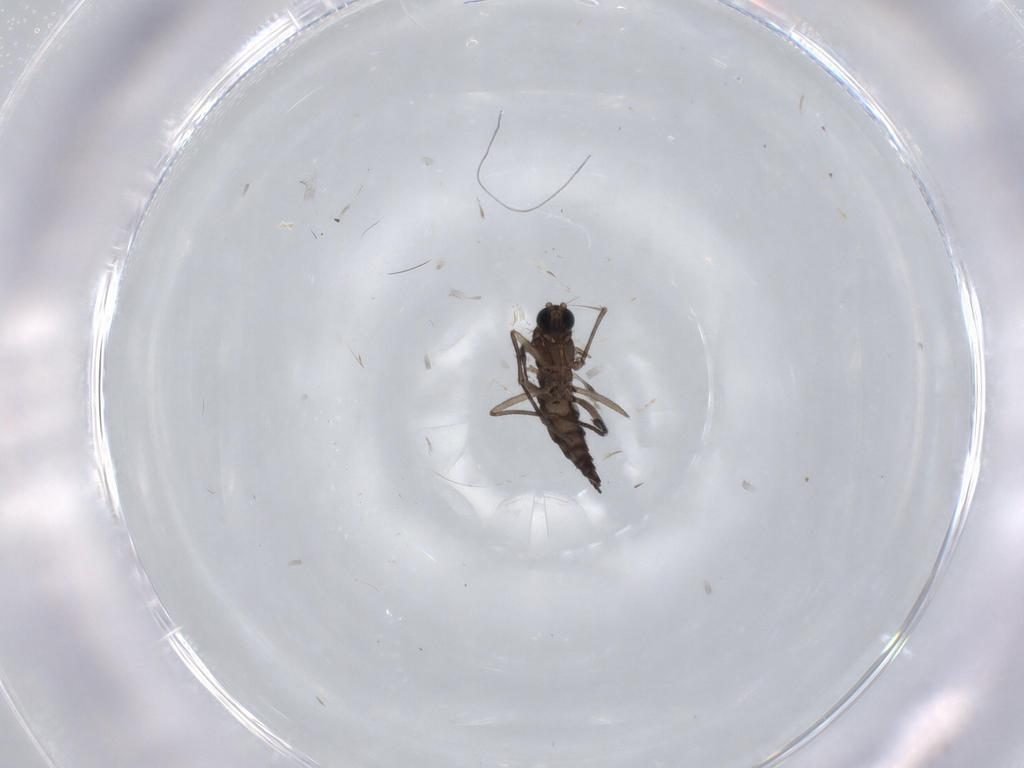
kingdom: Animalia
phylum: Arthropoda
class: Insecta
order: Diptera
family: Sciaridae
